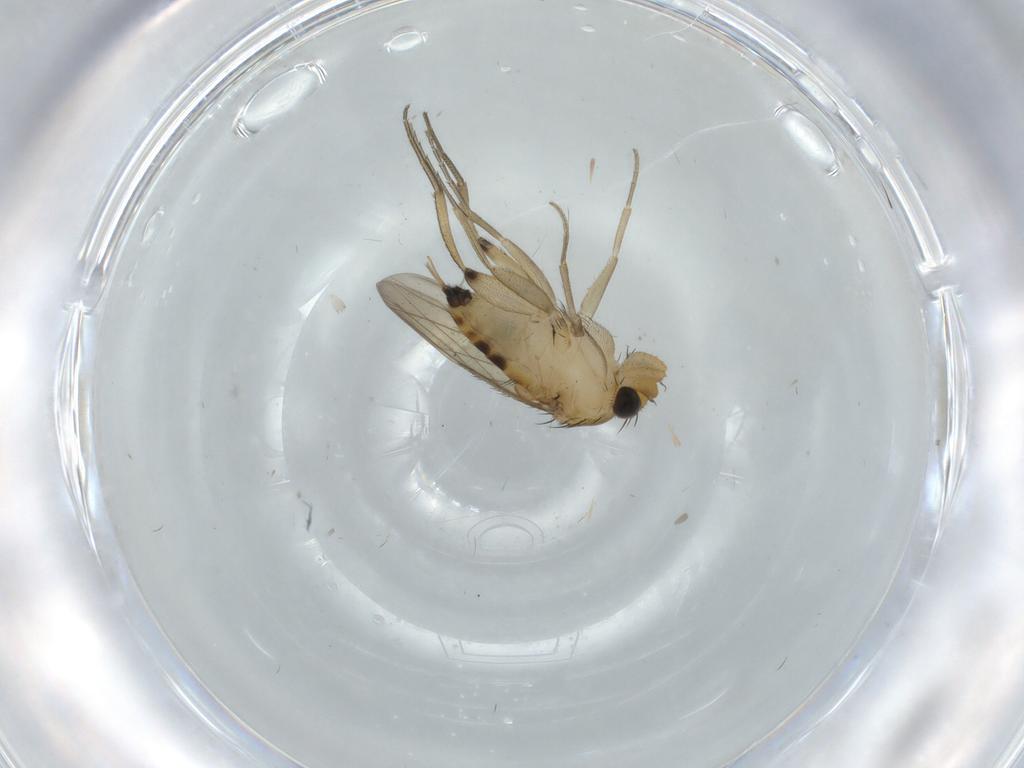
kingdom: Animalia
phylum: Arthropoda
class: Insecta
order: Diptera
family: Phoridae
